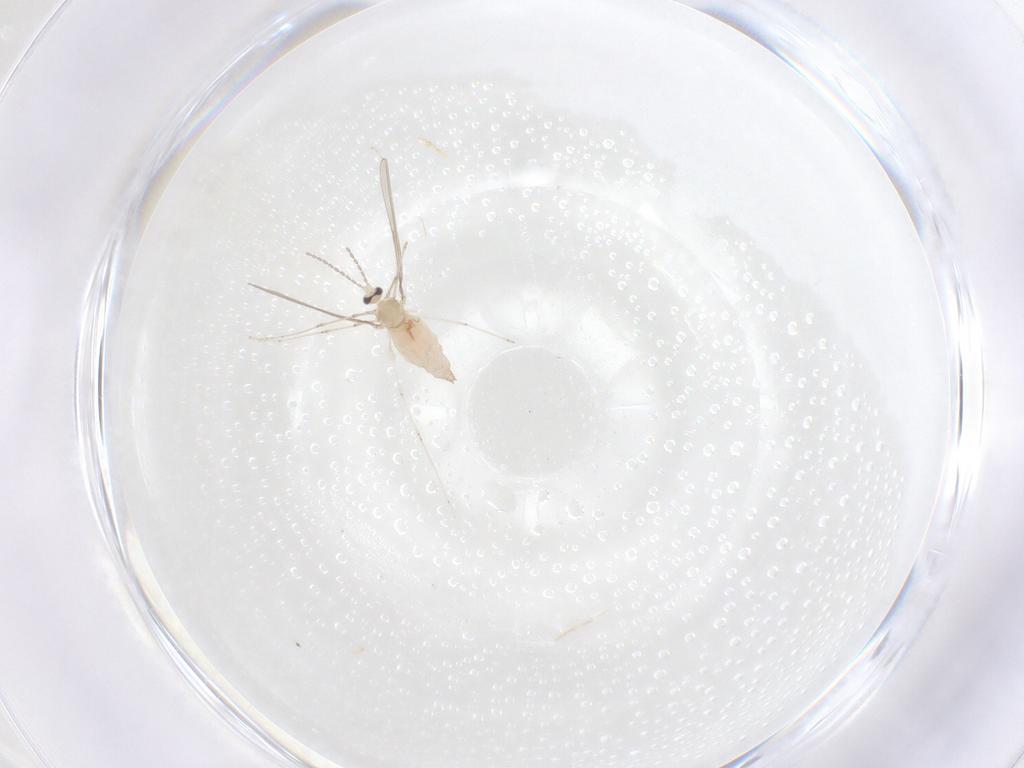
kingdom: Animalia
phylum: Arthropoda
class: Insecta
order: Diptera
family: Cecidomyiidae
